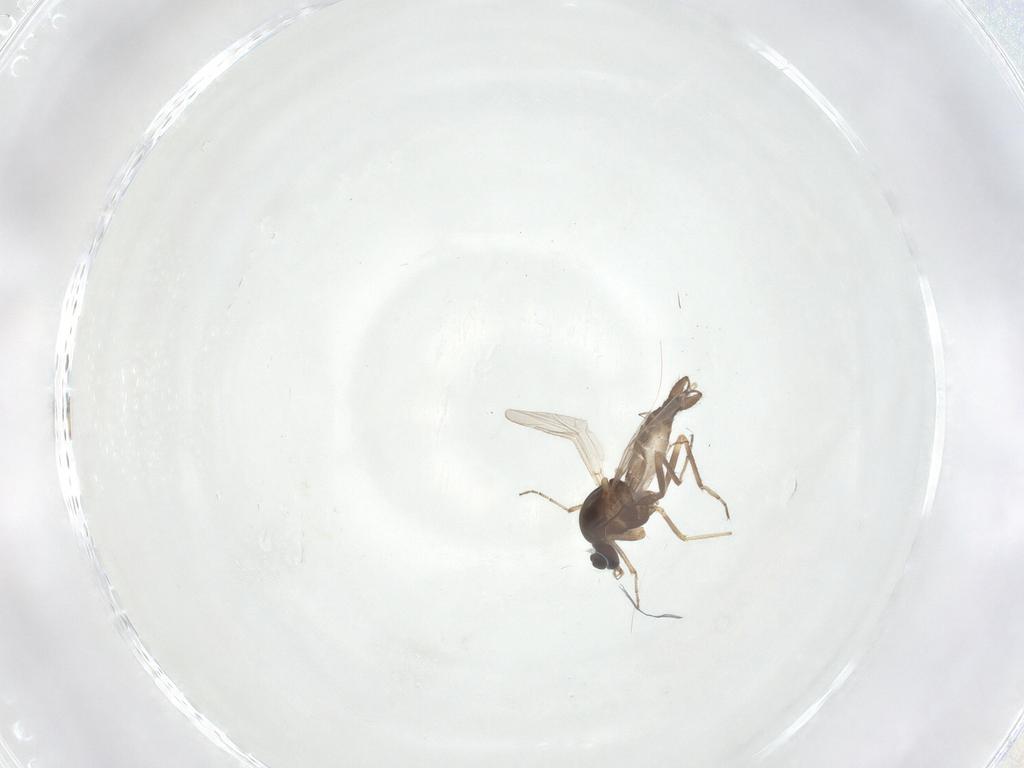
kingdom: Animalia
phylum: Arthropoda
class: Insecta
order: Diptera
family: Ceratopogonidae
